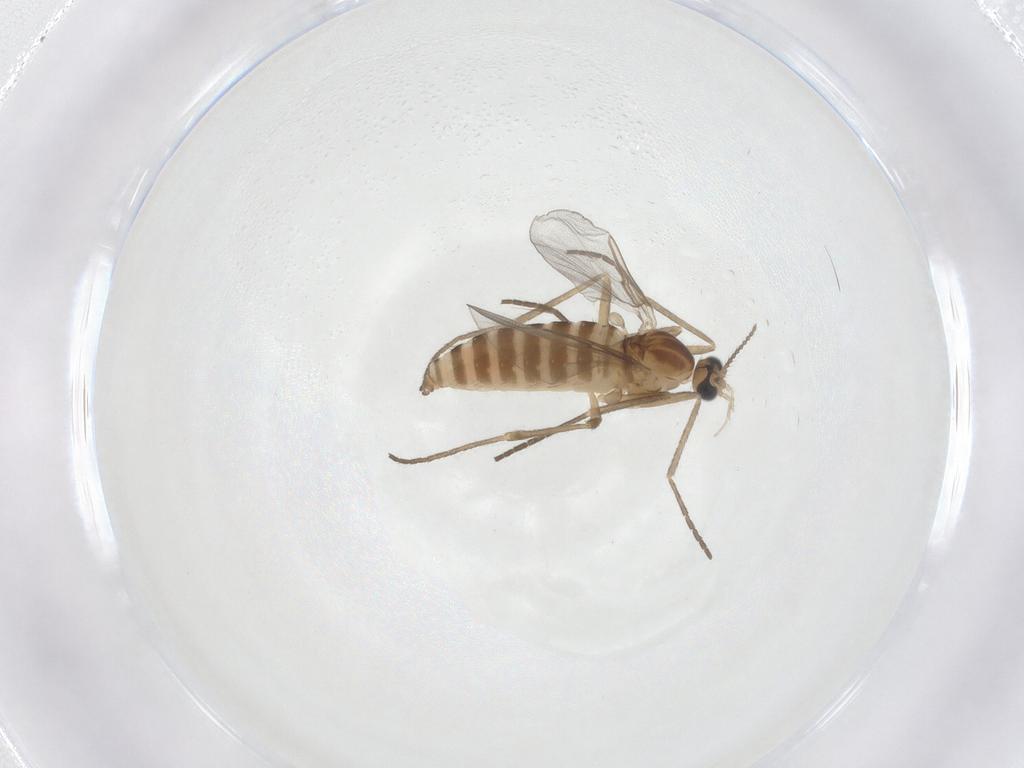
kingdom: Animalia
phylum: Arthropoda
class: Insecta
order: Diptera
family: Cecidomyiidae
